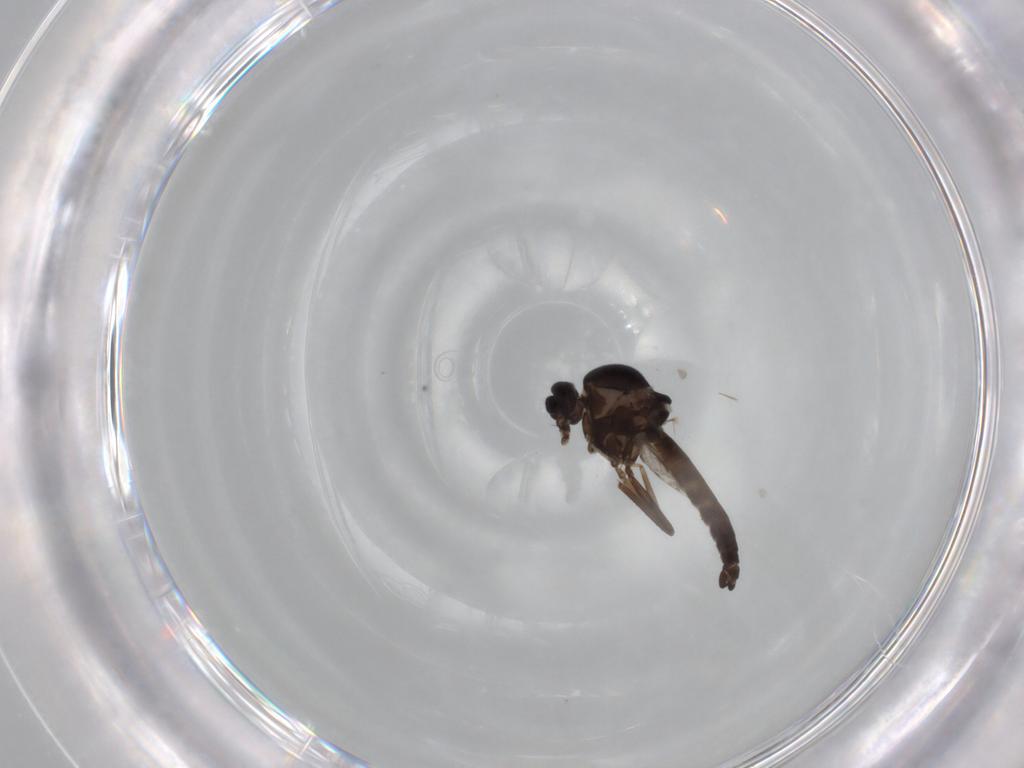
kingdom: Animalia
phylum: Arthropoda
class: Insecta
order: Diptera
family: Ceratopogonidae
